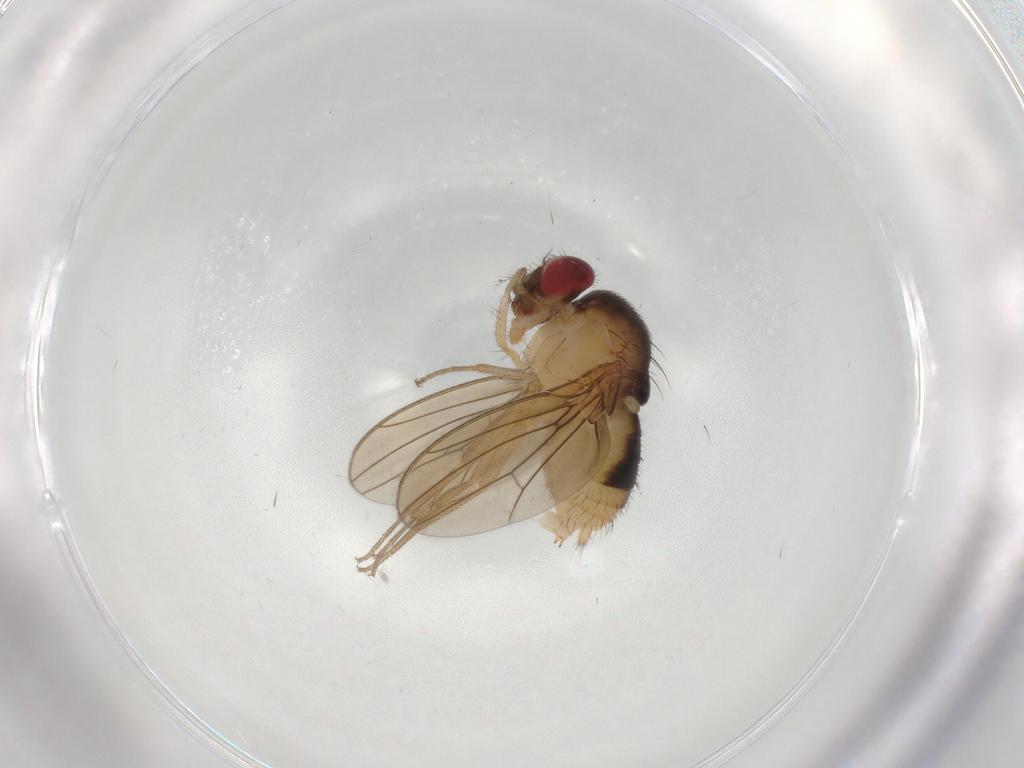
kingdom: Animalia
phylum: Arthropoda
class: Insecta
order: Diptera
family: Drosophilidae
